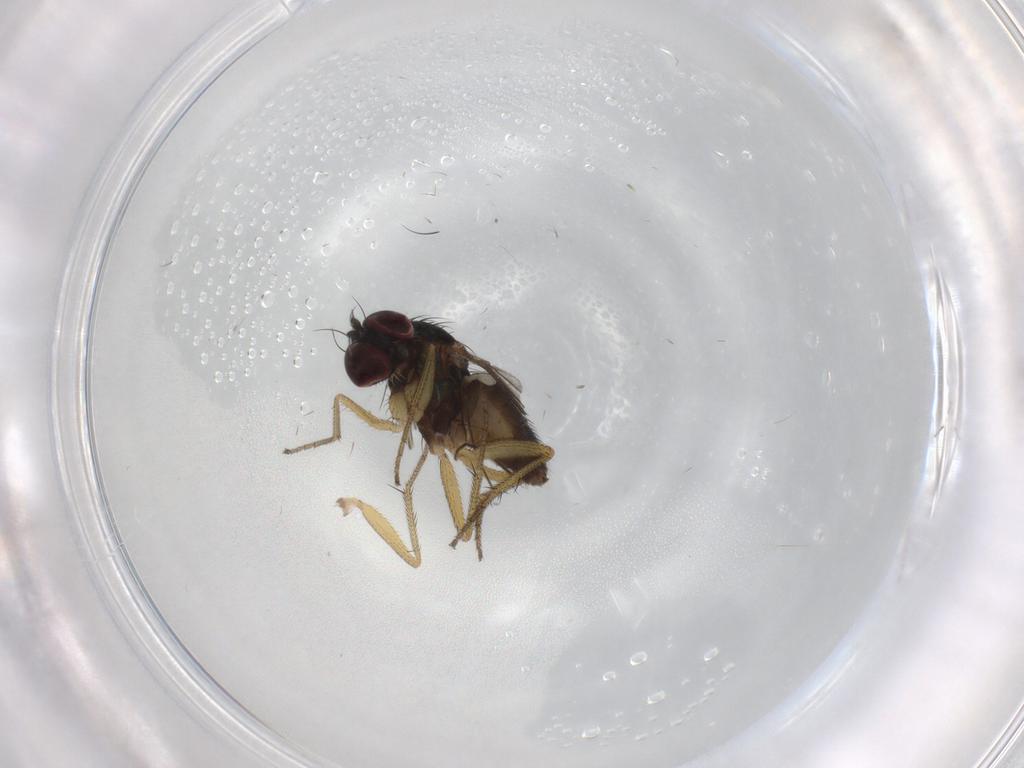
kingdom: Animalia
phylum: Arthropoda
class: Insecta
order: Diptera
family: Dolichopodidae
